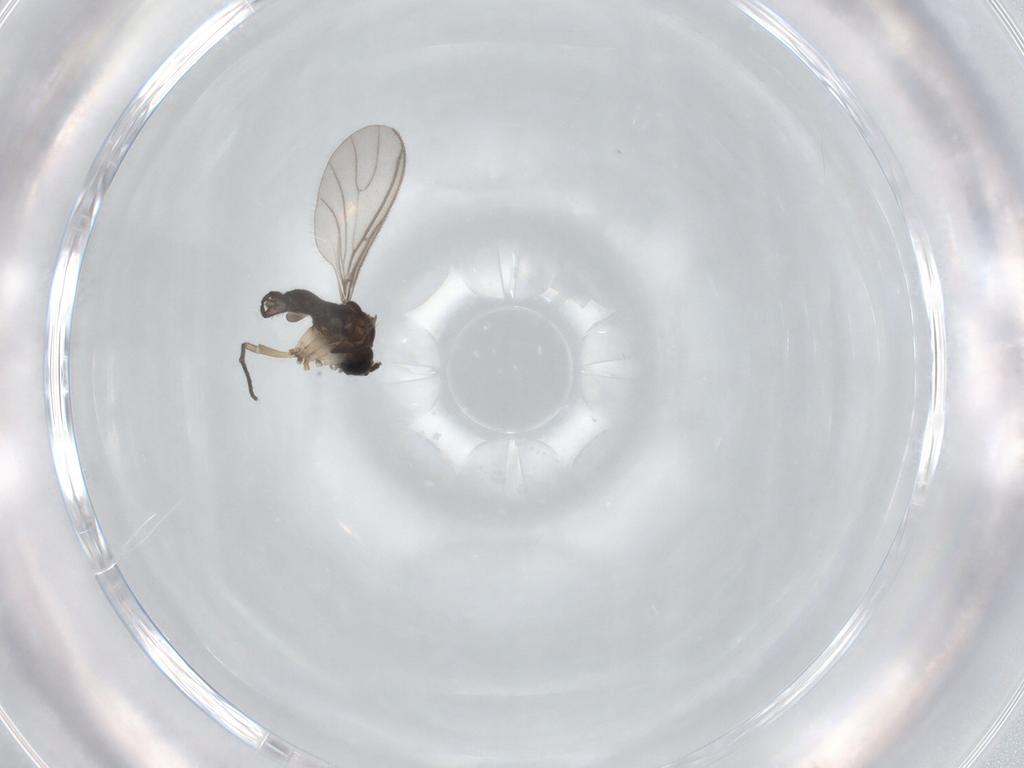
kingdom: Animalia
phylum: Arthropoda
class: Insecta
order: Diptera
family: Sciaridae
